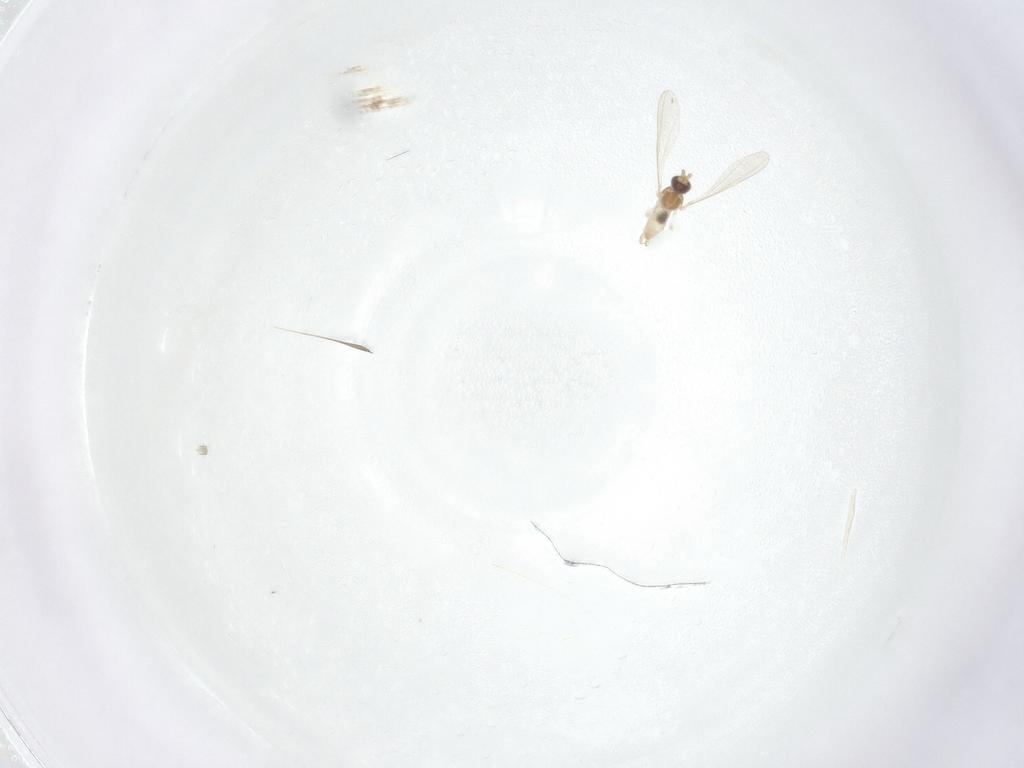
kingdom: Animalia
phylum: Arthropoda
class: Insecta
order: Diptera
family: Cecidomyiidae
